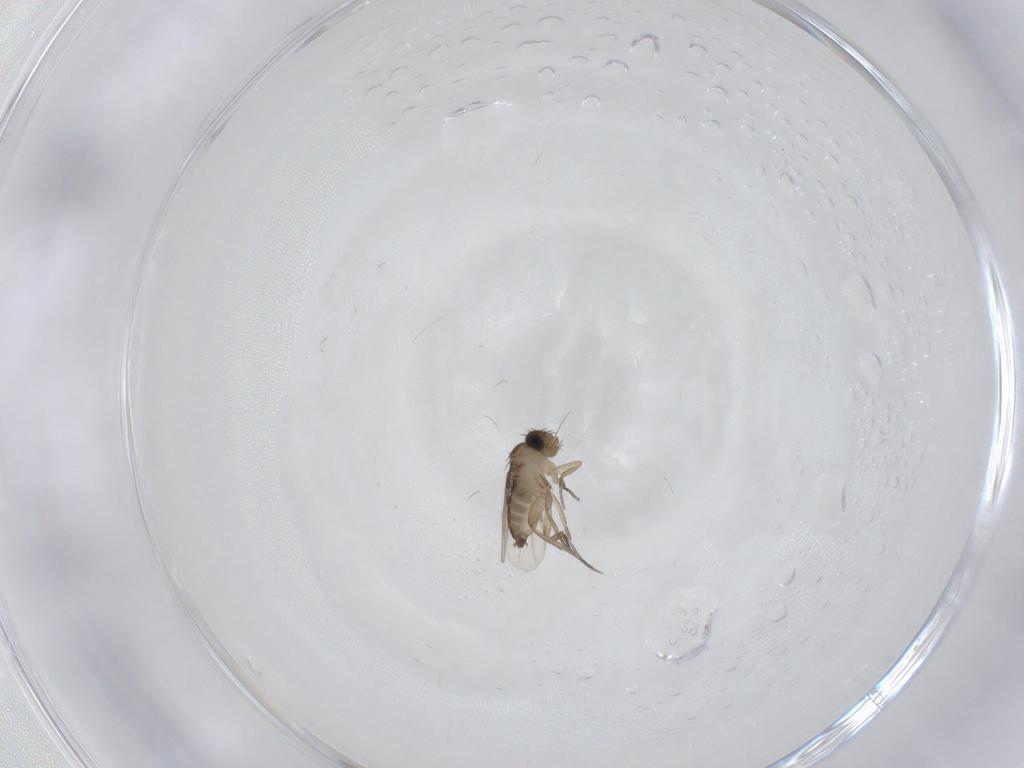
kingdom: Animalia
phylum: Arthropoda
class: Insecta
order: Diptera
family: Phoridae
